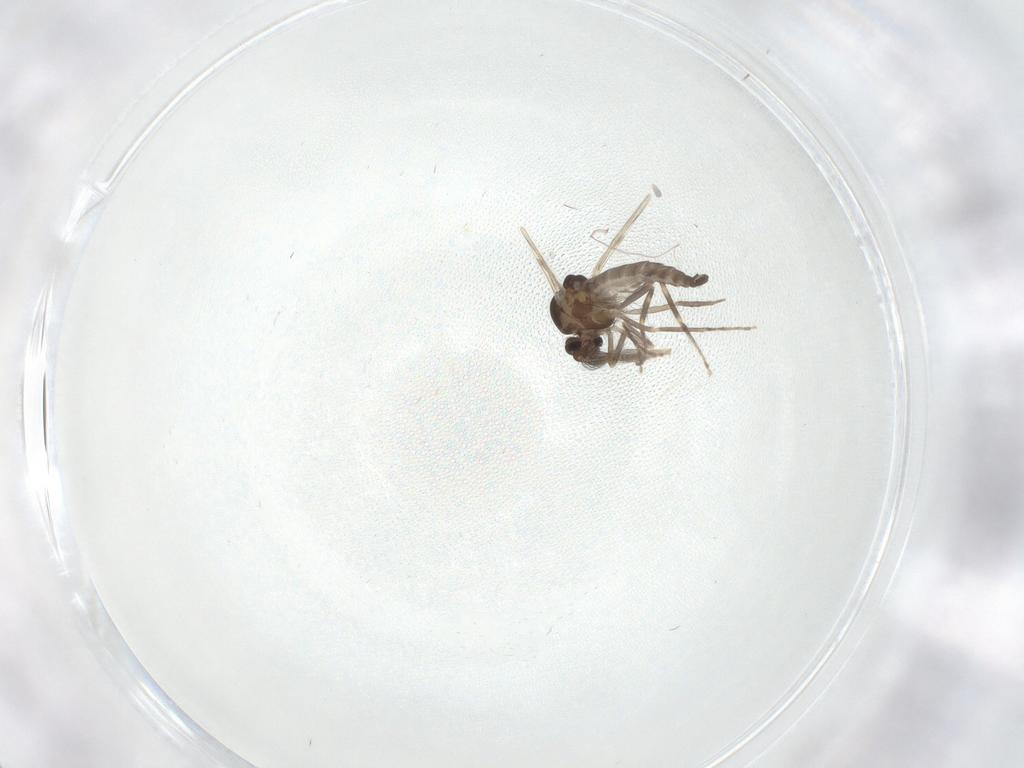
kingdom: Animalia
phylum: Arthropoda
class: Insecta
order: Diptera
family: Ceratopogonidae
